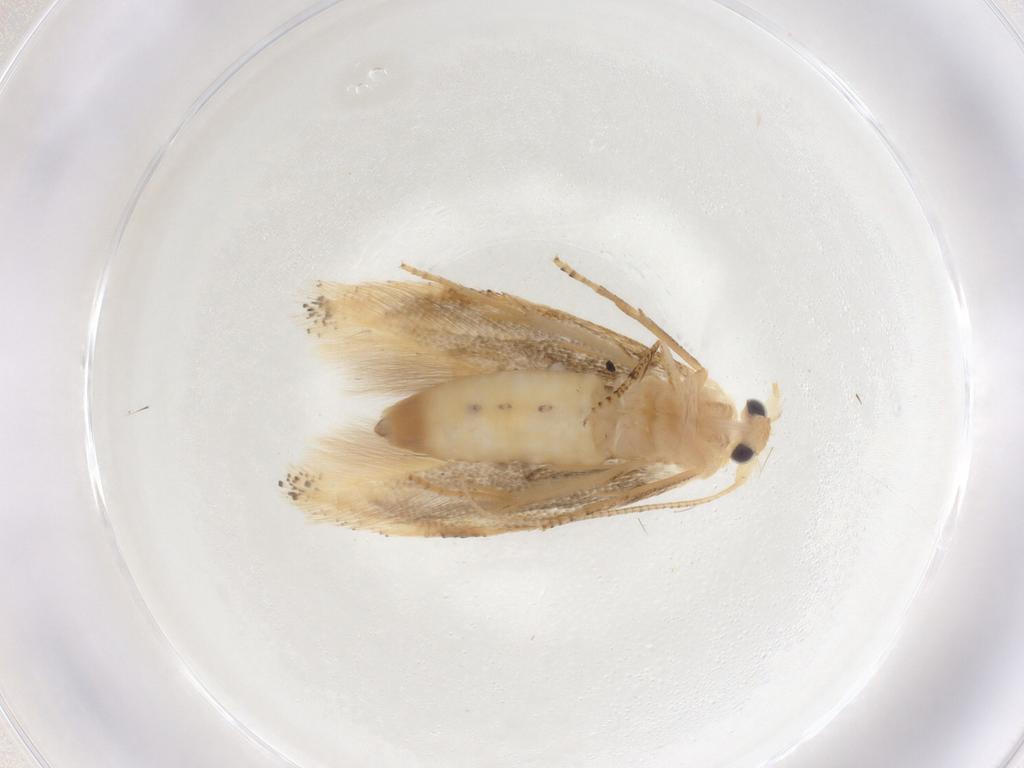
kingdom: Animalia
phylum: Arthropoda
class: Insecta
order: Lepidoptera
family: Bucculatricidae
